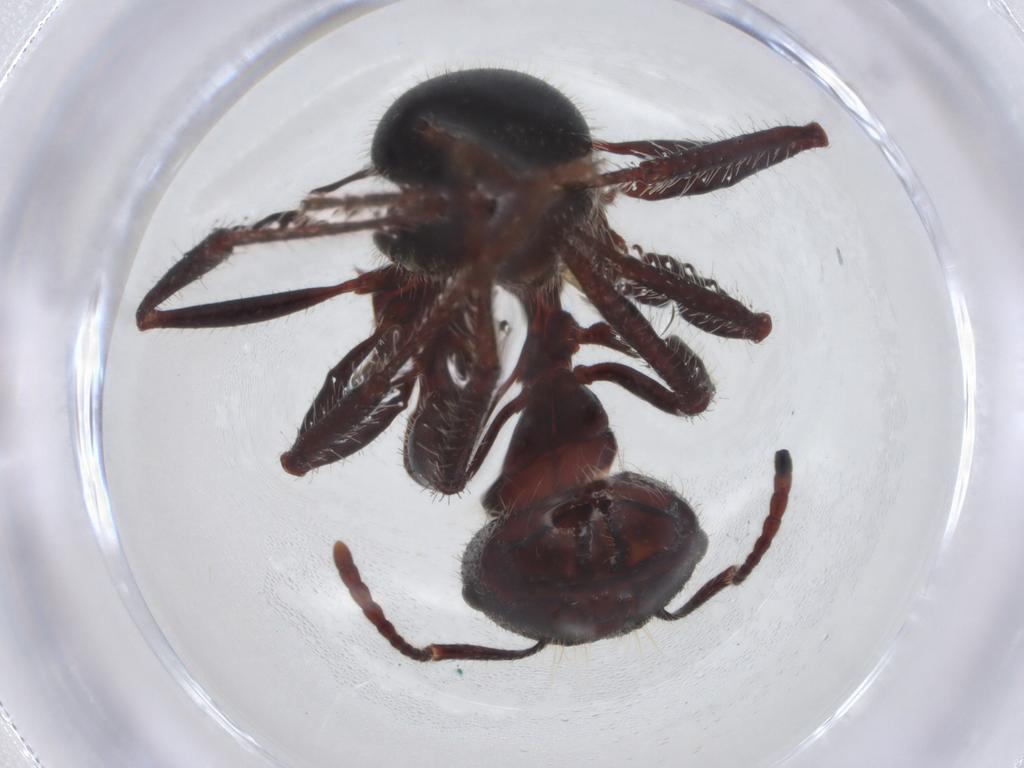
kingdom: Animalia
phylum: Arthropoda
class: Insecta
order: Hymenoptera
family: Formicidae
